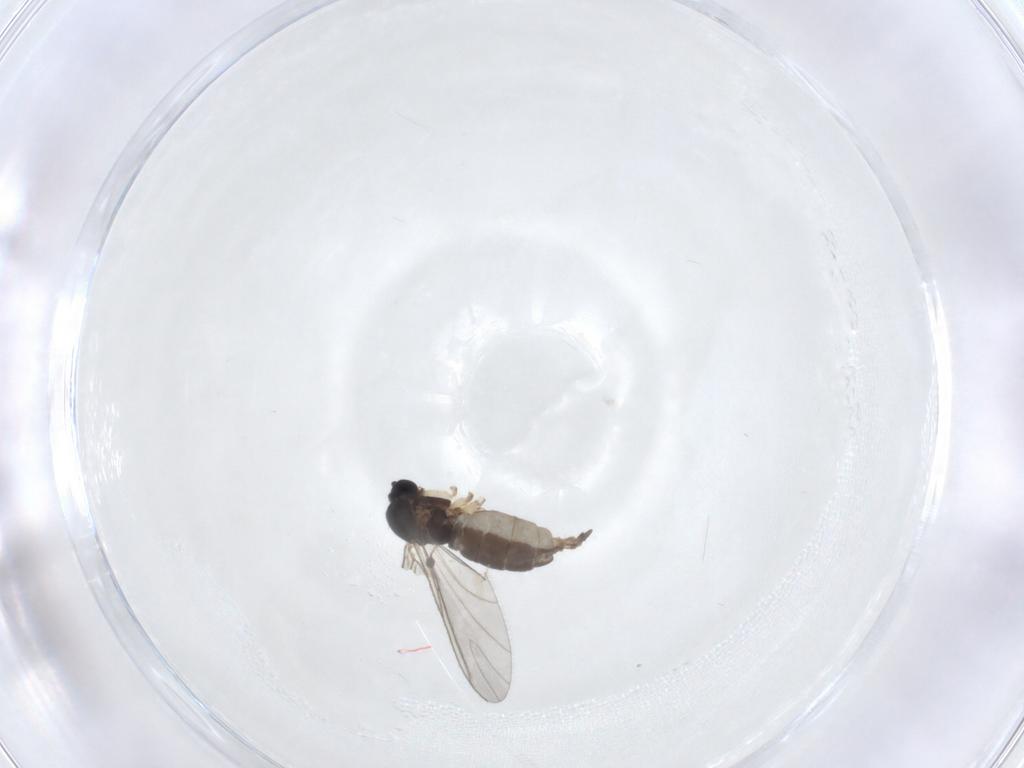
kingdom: Animalia
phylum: Arthropoda
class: Insecta
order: Diptera
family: Sciaridae
